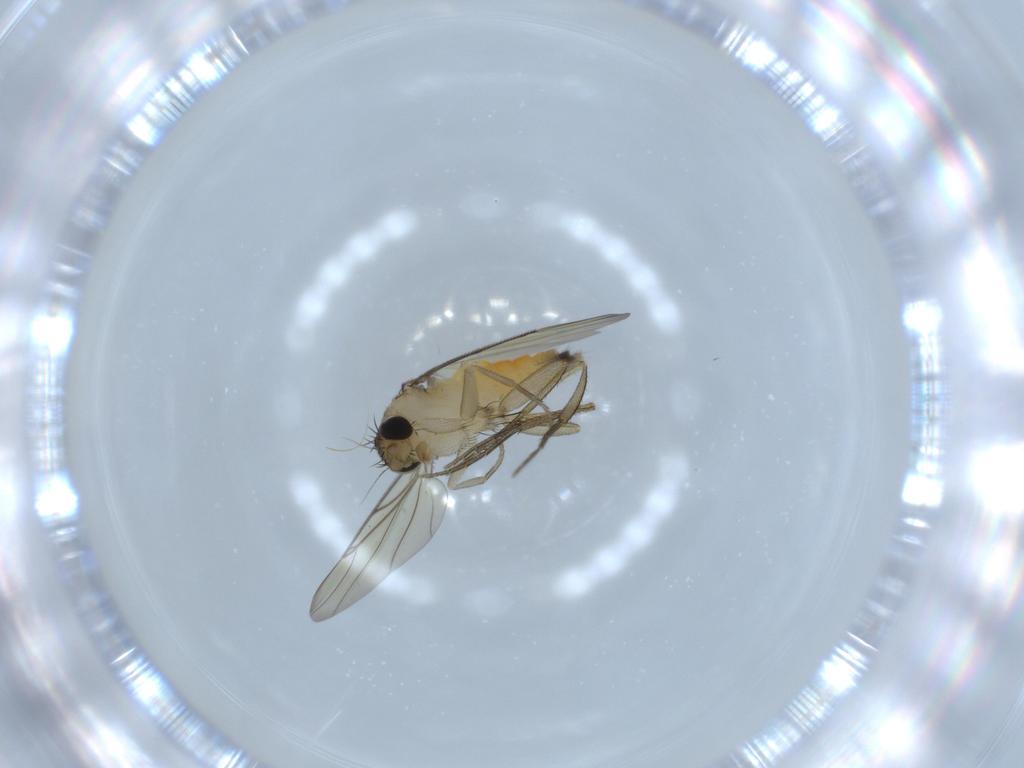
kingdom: Animalia
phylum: Arthropoda
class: Insecta
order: Diptera
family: Phoridae
